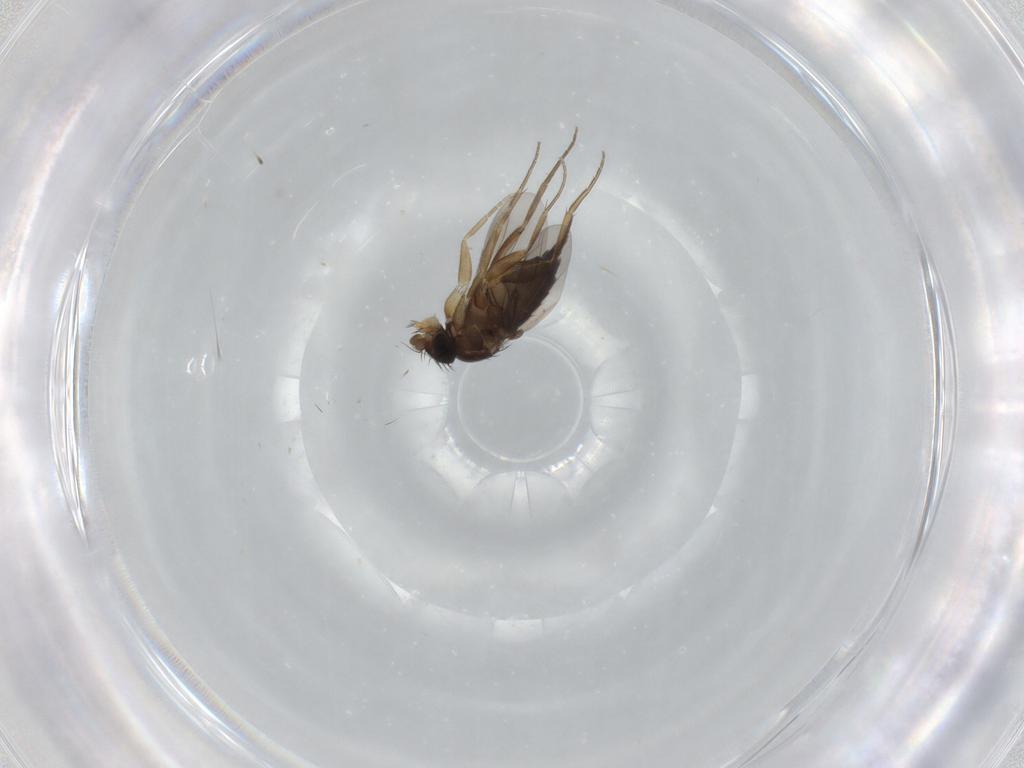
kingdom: Animalia
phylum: Arthropoda
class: Insecta
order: Diptera
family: Phoridae
